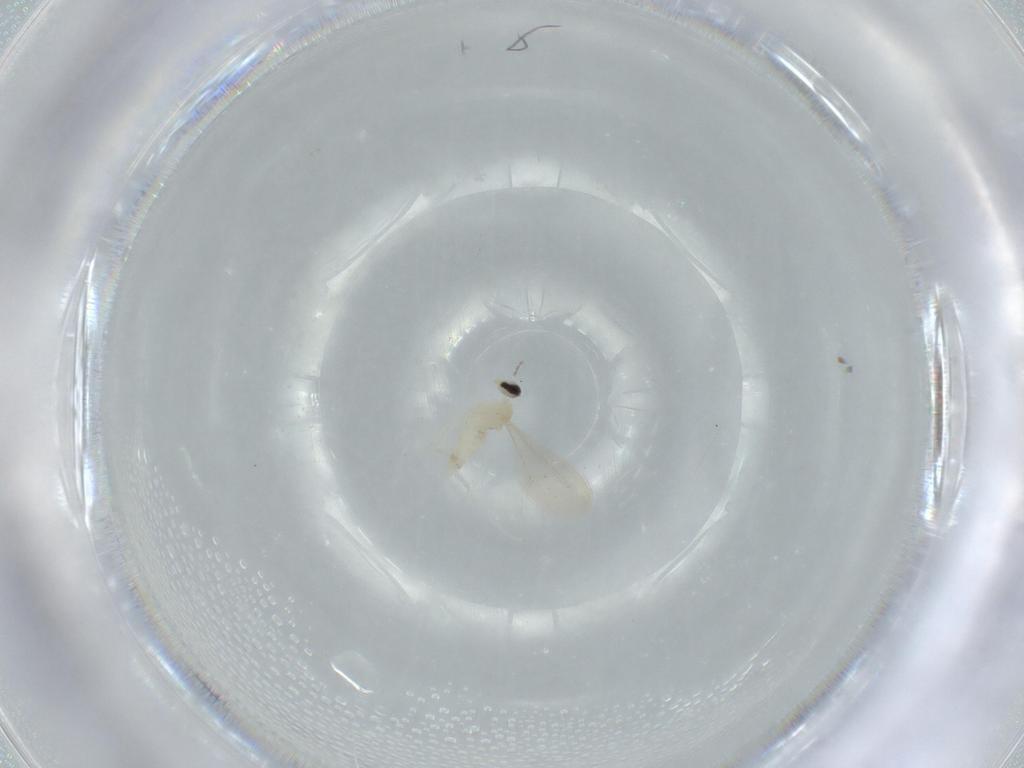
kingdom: Animalia
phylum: Arthropoda
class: Insecta
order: Diptera
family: Cecidomyiidae
